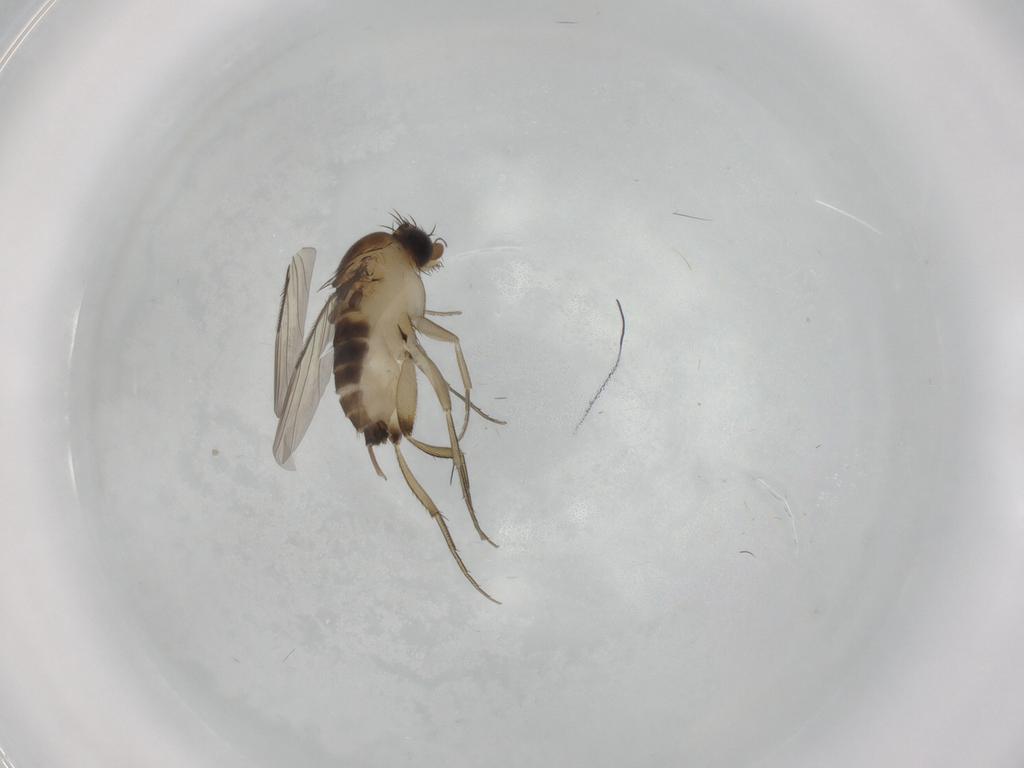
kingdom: Animalia
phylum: Arthropoda
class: Insecta
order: Diptera
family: Phoridae
